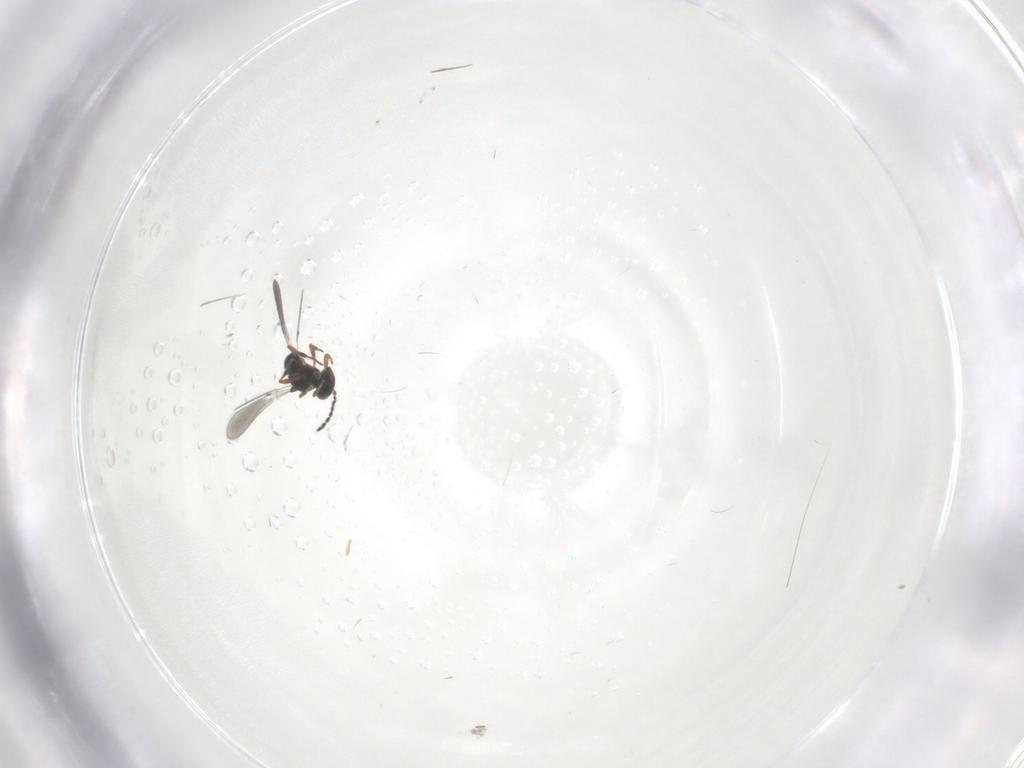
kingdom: Animalia
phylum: Arthropoda
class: Insecta
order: Hymenoptera
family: Platygastridae
